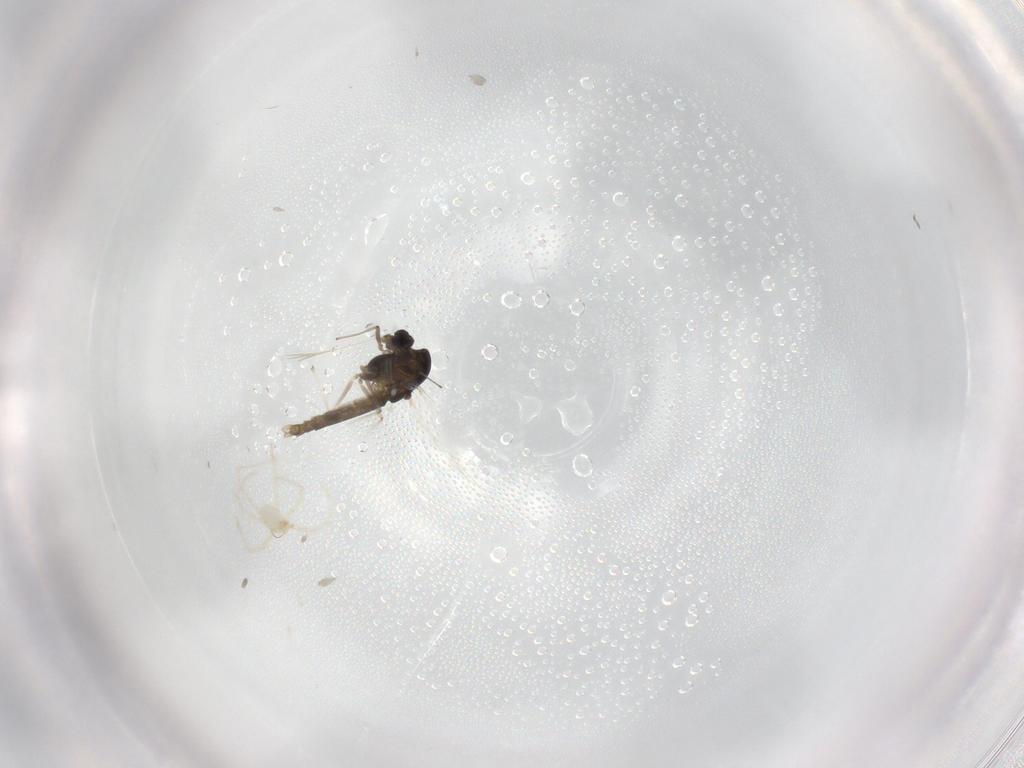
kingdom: Animalia
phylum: Arthropoda
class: Insecta
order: Diptera
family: Chironomidae
